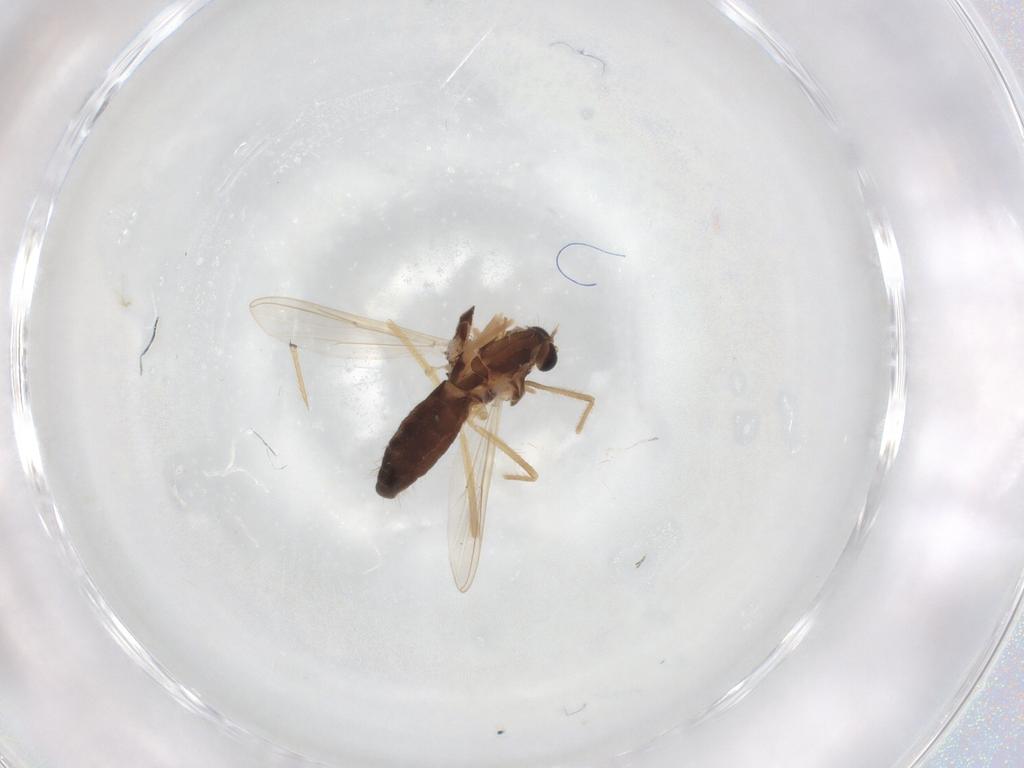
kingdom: Animalia
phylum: Arthropoda
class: Insecta
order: Diptera
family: Chironomidae
